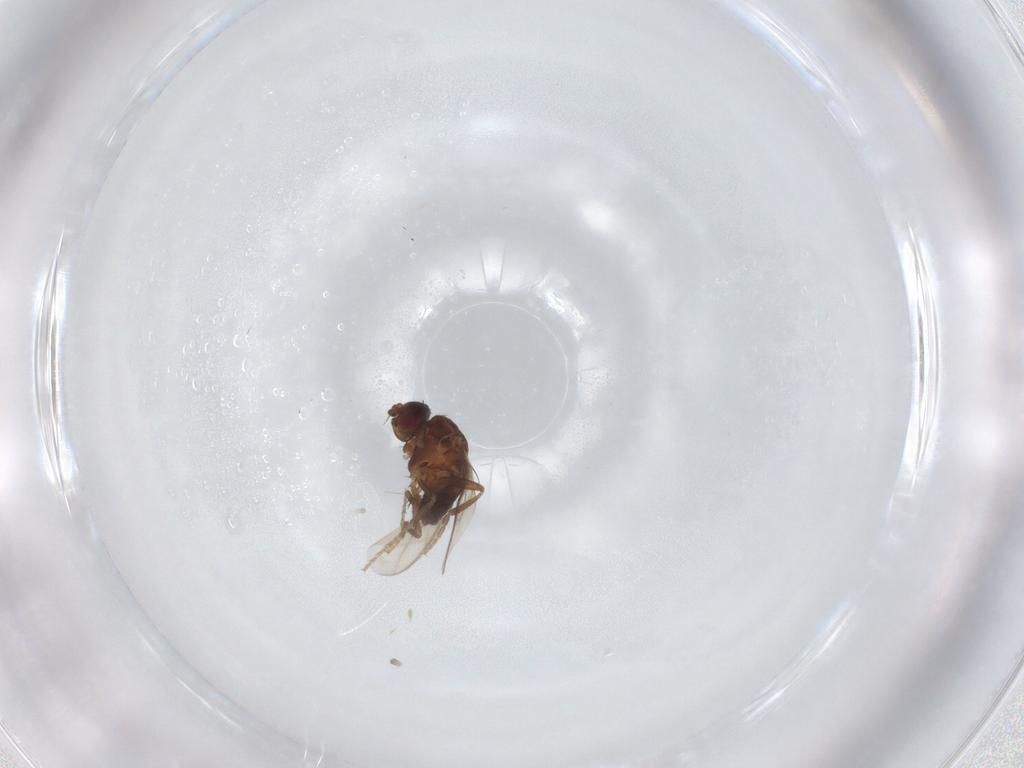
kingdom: Animalia
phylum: Arthropoda
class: Insecta
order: Diptera
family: Sphaeroceridae
